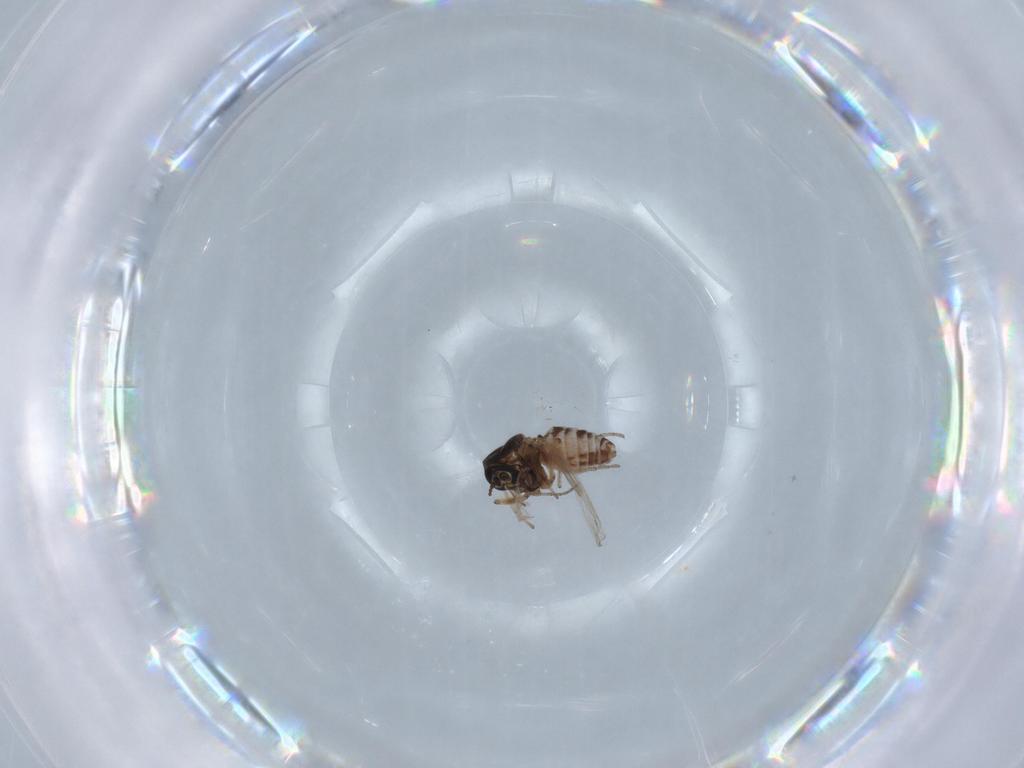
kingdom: Animalia
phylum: Arthropoda
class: Insecta
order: Diptera
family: Ceratopogonidae
